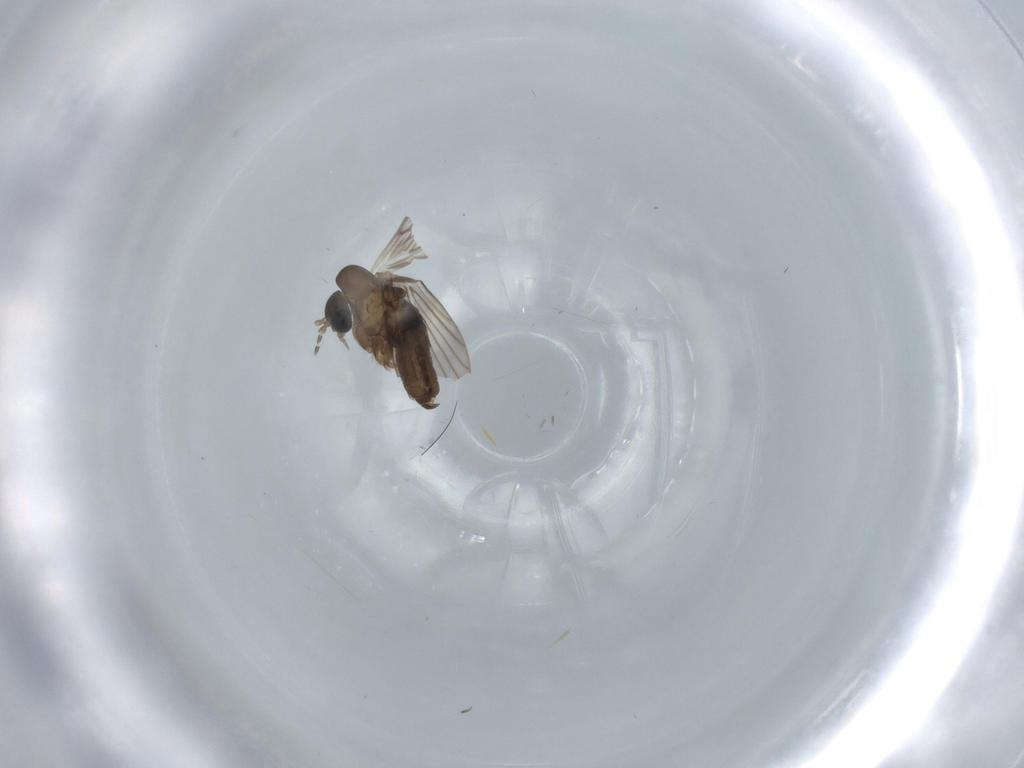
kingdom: Animalia
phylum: Arthropoda
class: Insecta
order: Diptera
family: Psychodidae
